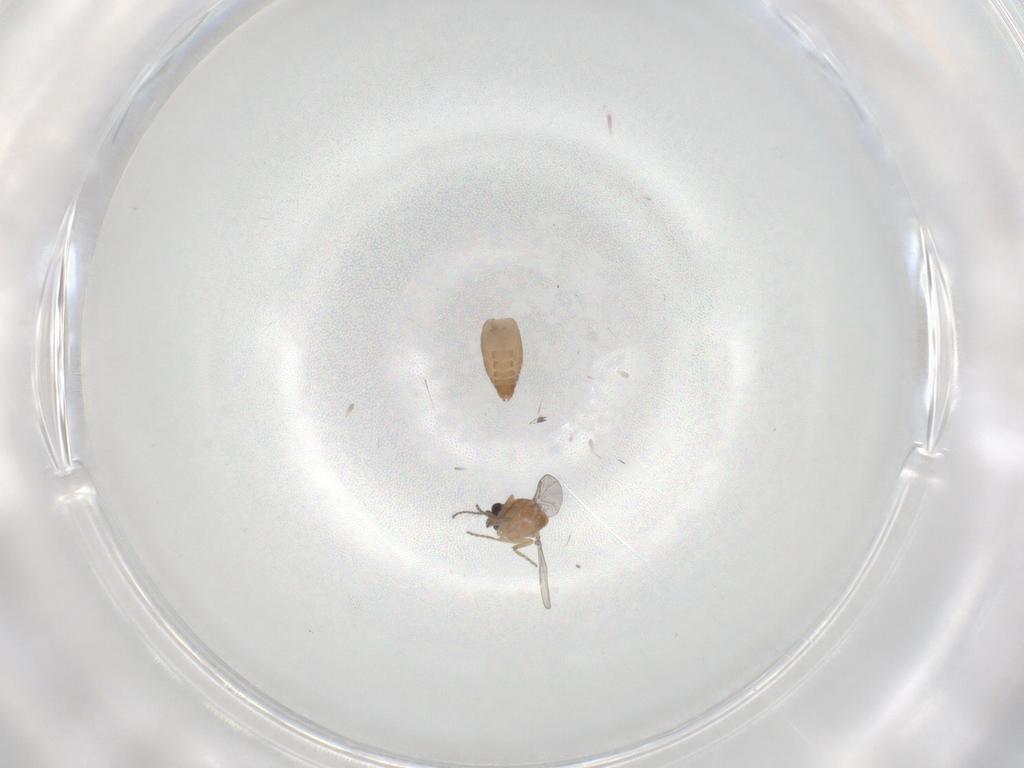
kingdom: Animalia
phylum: Arthropoda
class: Insecta
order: Diptera
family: Ceratopogonidae
